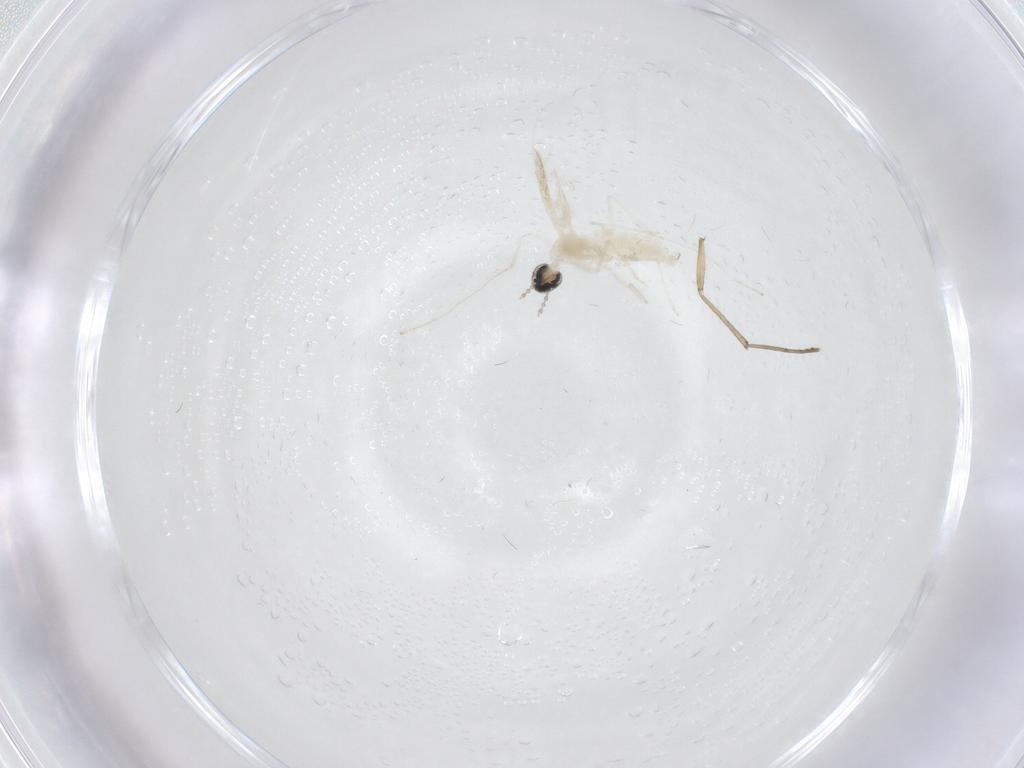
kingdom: Animalia
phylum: Arthropoda
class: Insecta
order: Diptera
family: Cecidomyiidae
